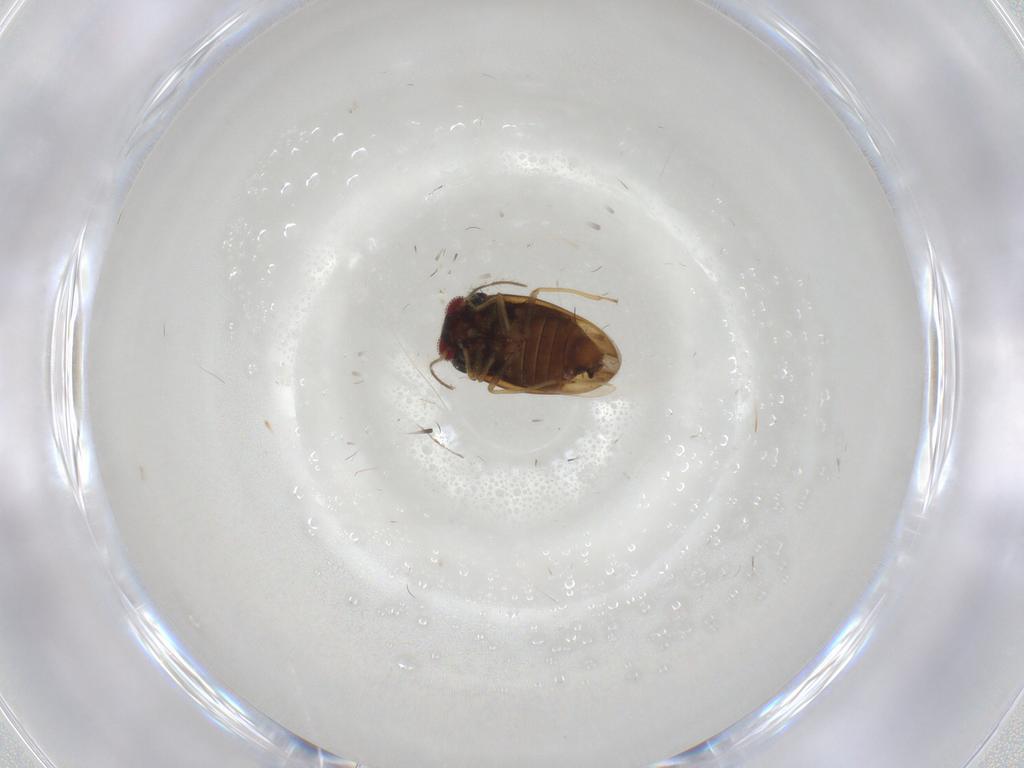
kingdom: Animalia
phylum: Arthropoda
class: Insecta
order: Hemiptera
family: Schizopteridae
